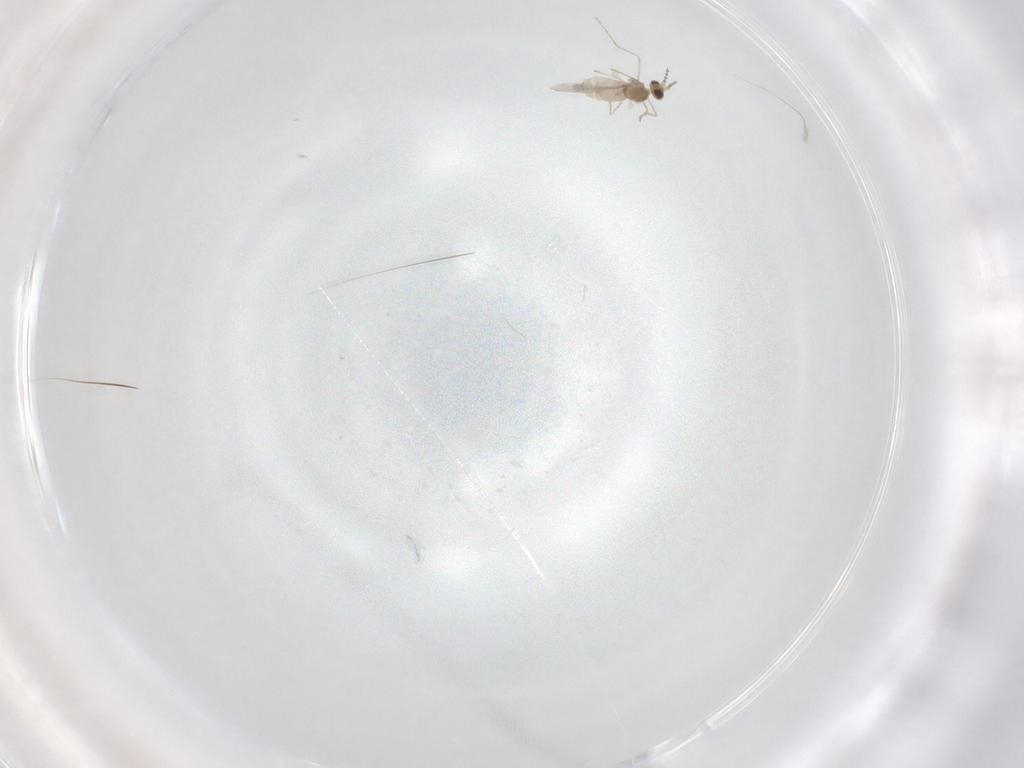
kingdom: Animalia
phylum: Arthropoda
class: Insecta
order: Diptera
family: Cecidomyiidae
